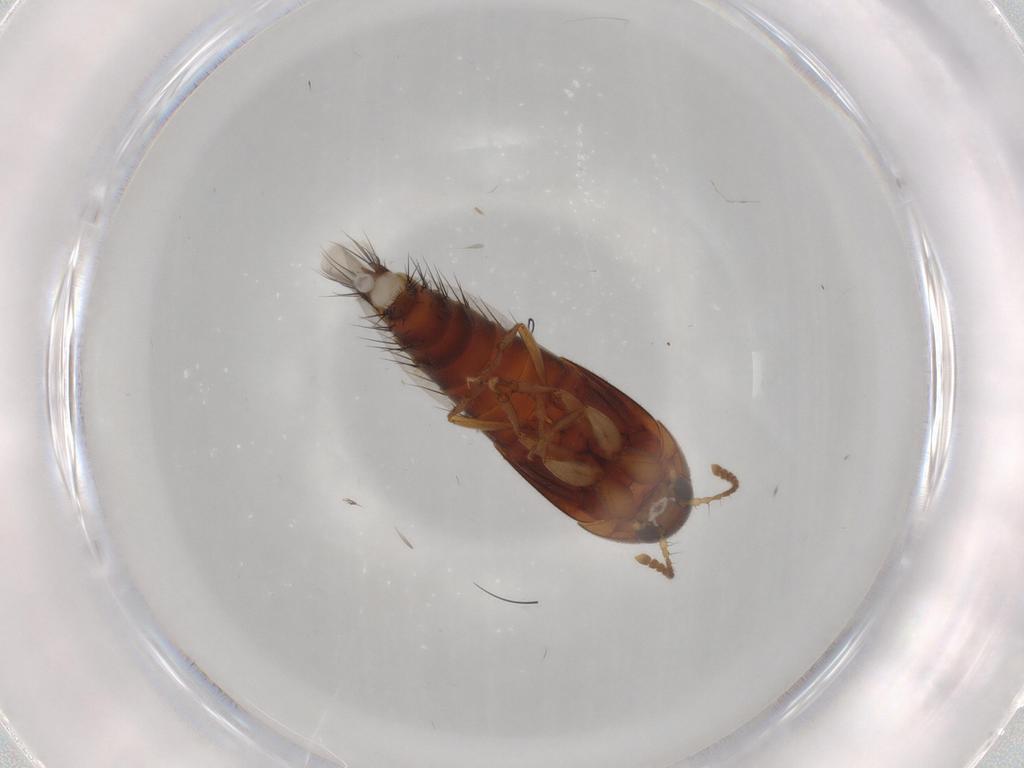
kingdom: Animalia
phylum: Arthropoda
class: Insecta
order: Coleoptera
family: Staphylinidae
